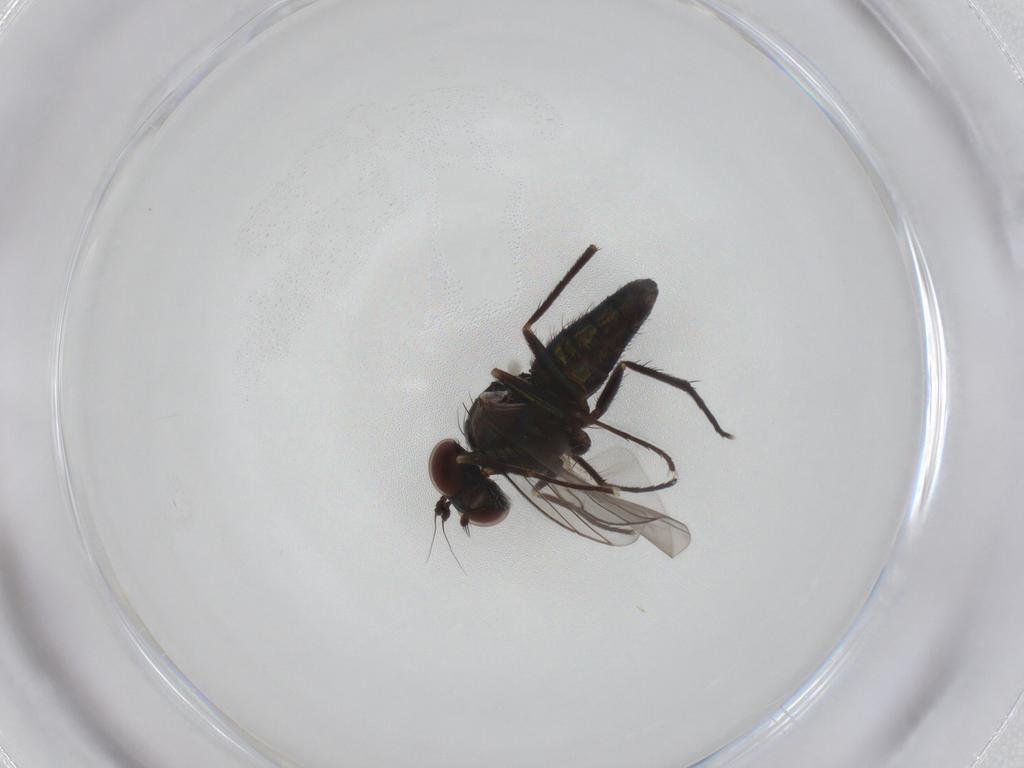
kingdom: Animalia
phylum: Arthropoda
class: Insecta
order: Diptera
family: Dolichopodidae
